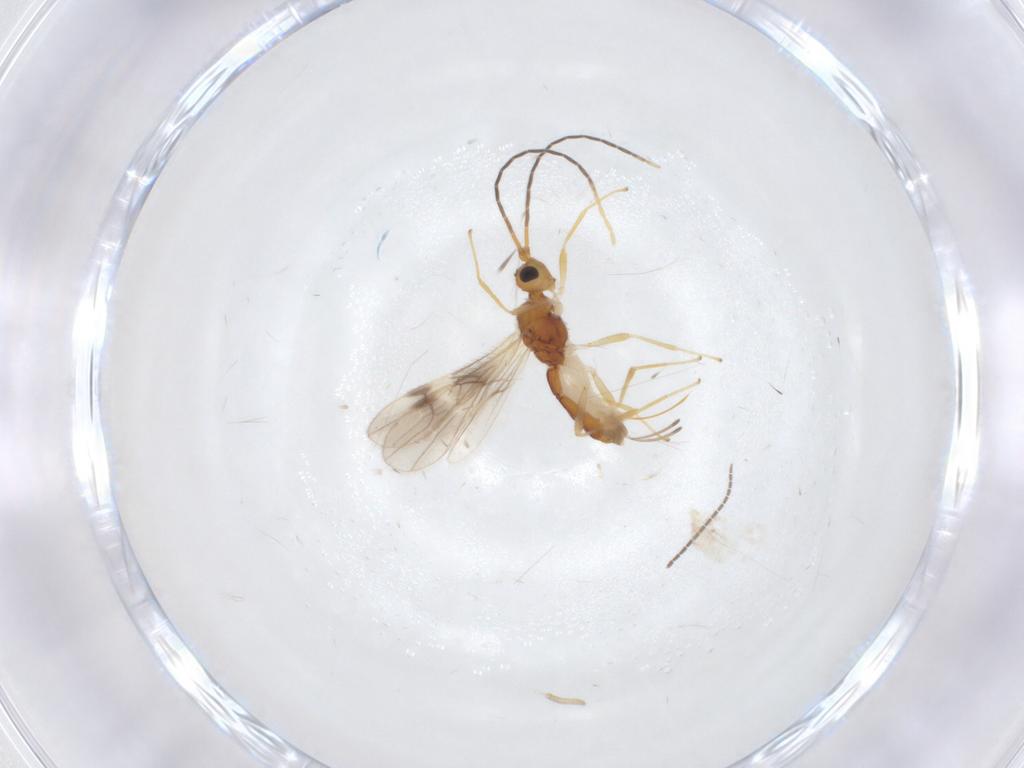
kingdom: Animalia
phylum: Arthropoda
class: Insecta
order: Hymenoptera
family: Braconidae
